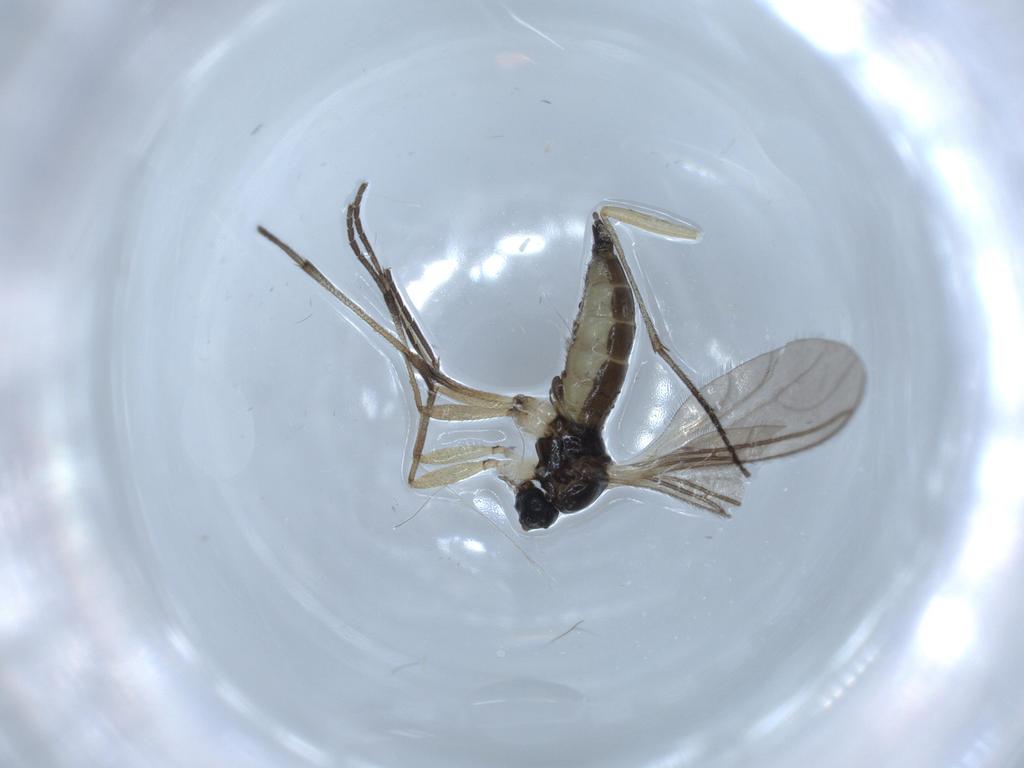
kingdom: Animalia
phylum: Arthropoda
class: Insecta
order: Diptera
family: Sciaridae
